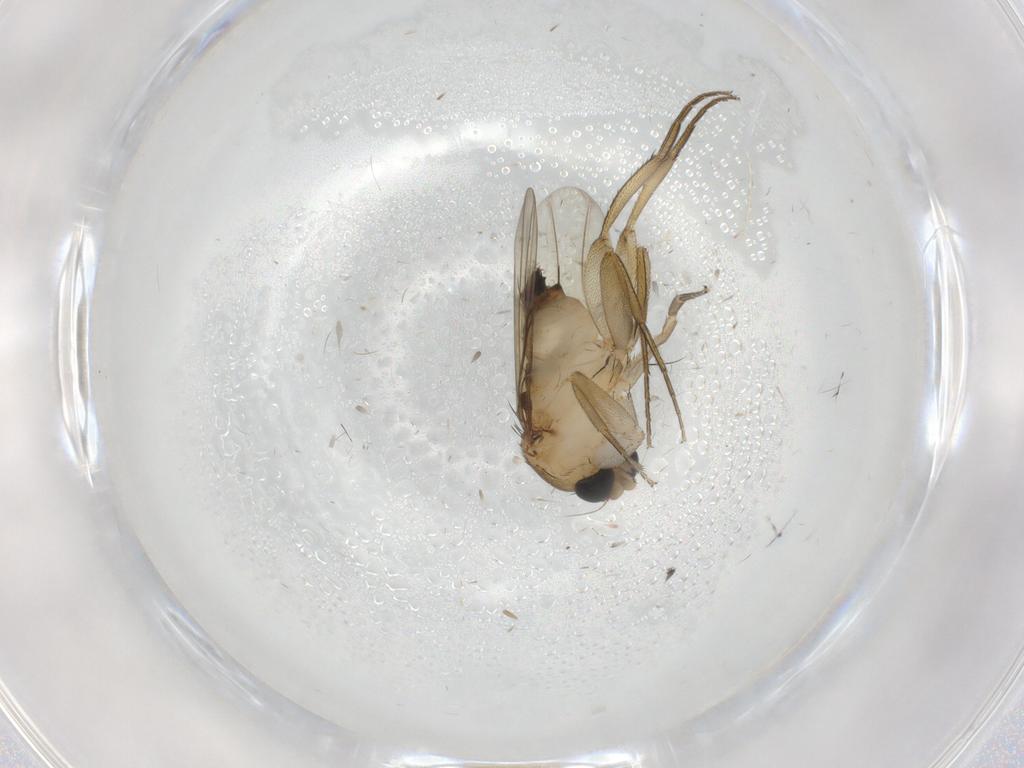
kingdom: Animalia
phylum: Arthropoda
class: Insecta
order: Diptera
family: Phoridae
